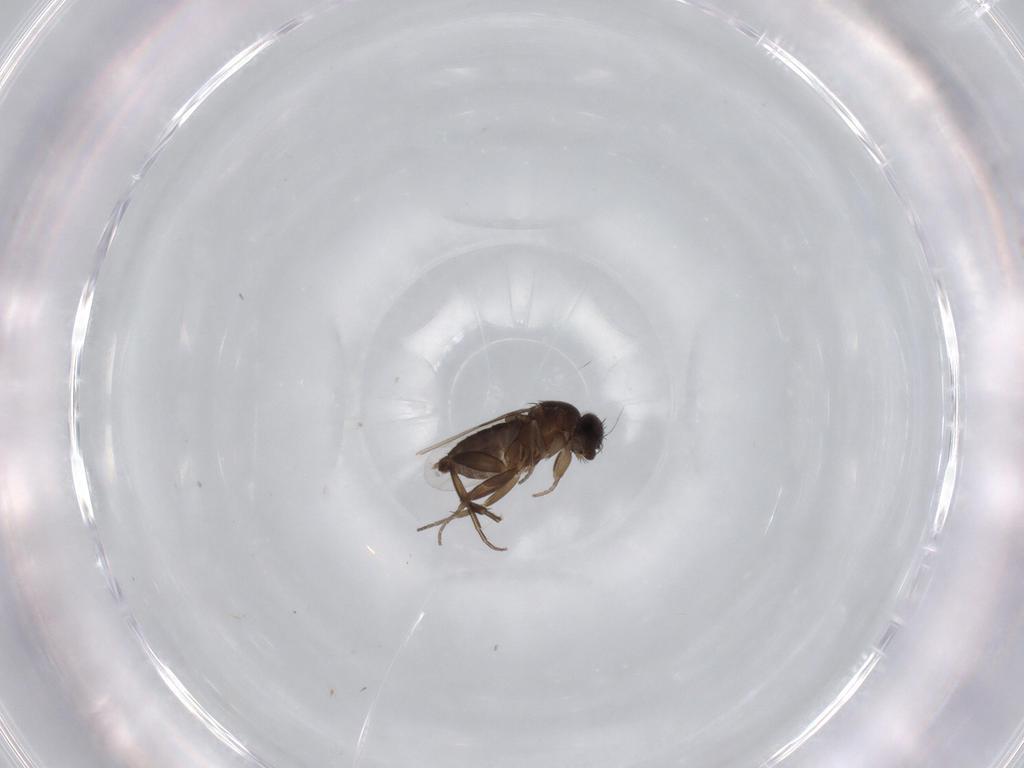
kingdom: Animalia
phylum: Arthropoda
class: Insecta
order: Diptera
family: Phoridae
